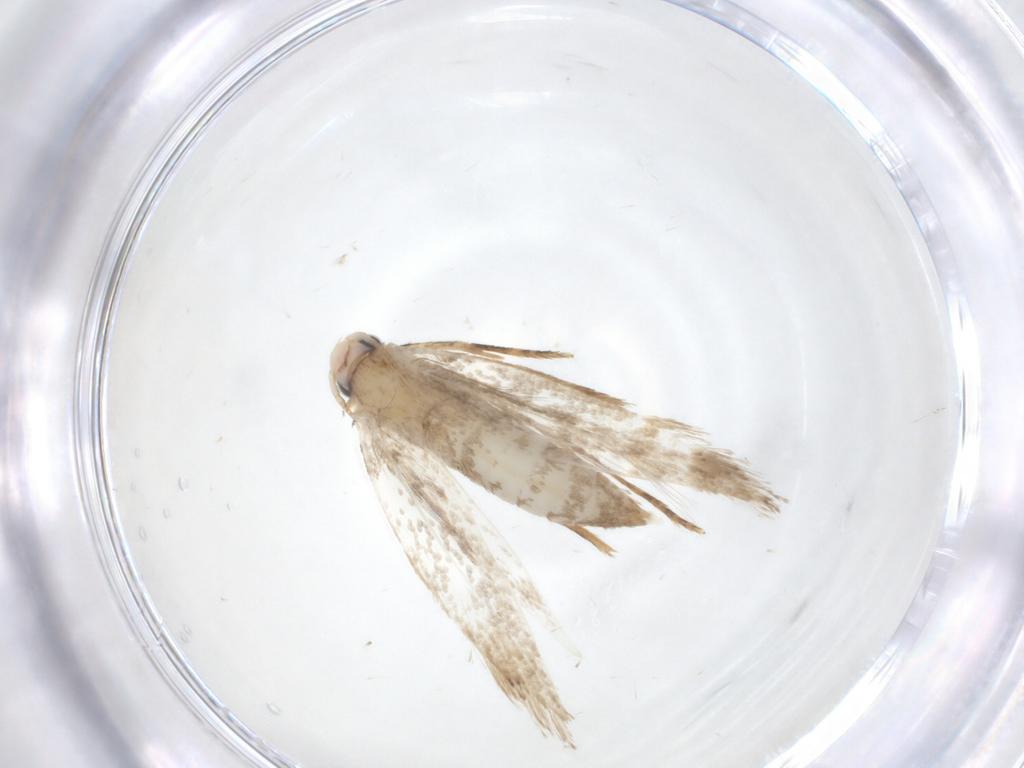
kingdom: Animalia
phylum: Arthropoda
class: Insecta
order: Lepidoptera
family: Tineidae
